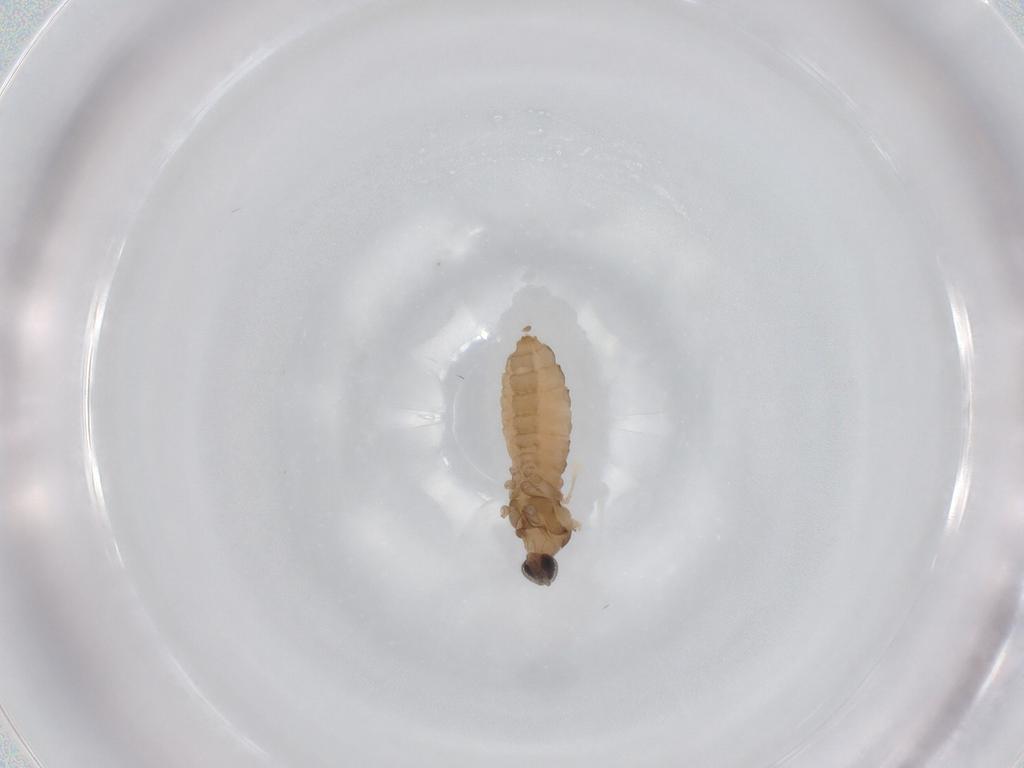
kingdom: Animalia
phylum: Arthropoda
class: Insecta
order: Diptera
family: Cecidomyiidae
